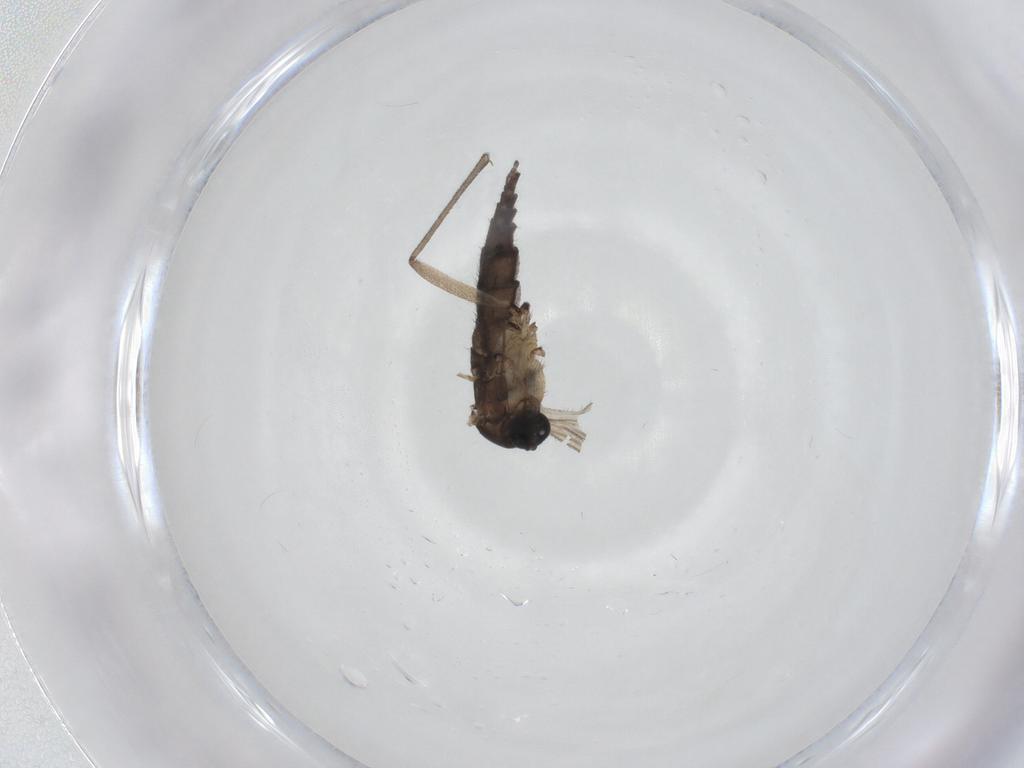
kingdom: Animalia
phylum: Arthropoda
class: Insecta
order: Diptera
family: Sciaridae
